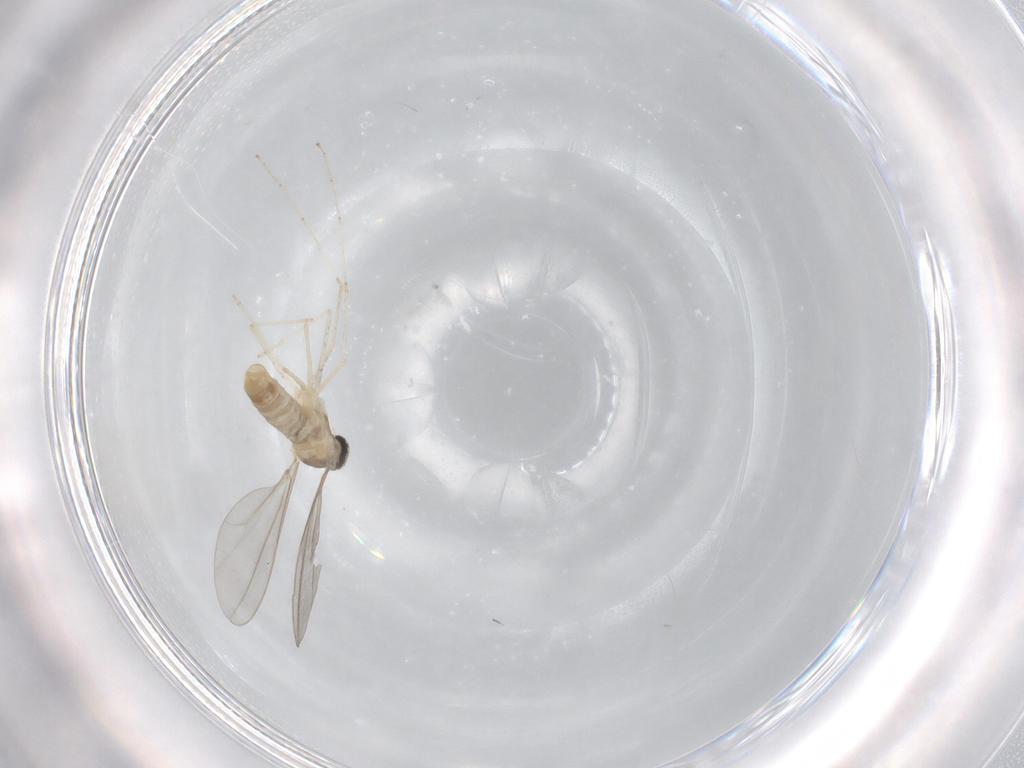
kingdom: Animalia
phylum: Arthropoda
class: Insecta
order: Diptera
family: Cecidomyiidae
